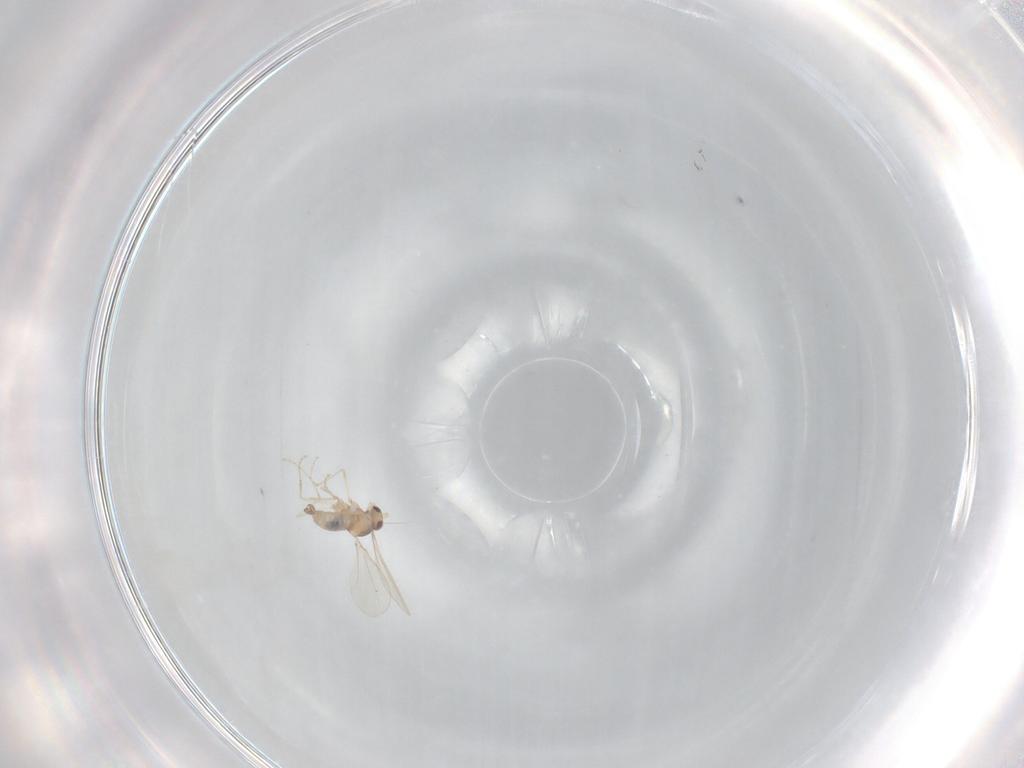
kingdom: Animalia
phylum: Arthropoda
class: Insecta
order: Diptera
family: Cecidomyiidae
